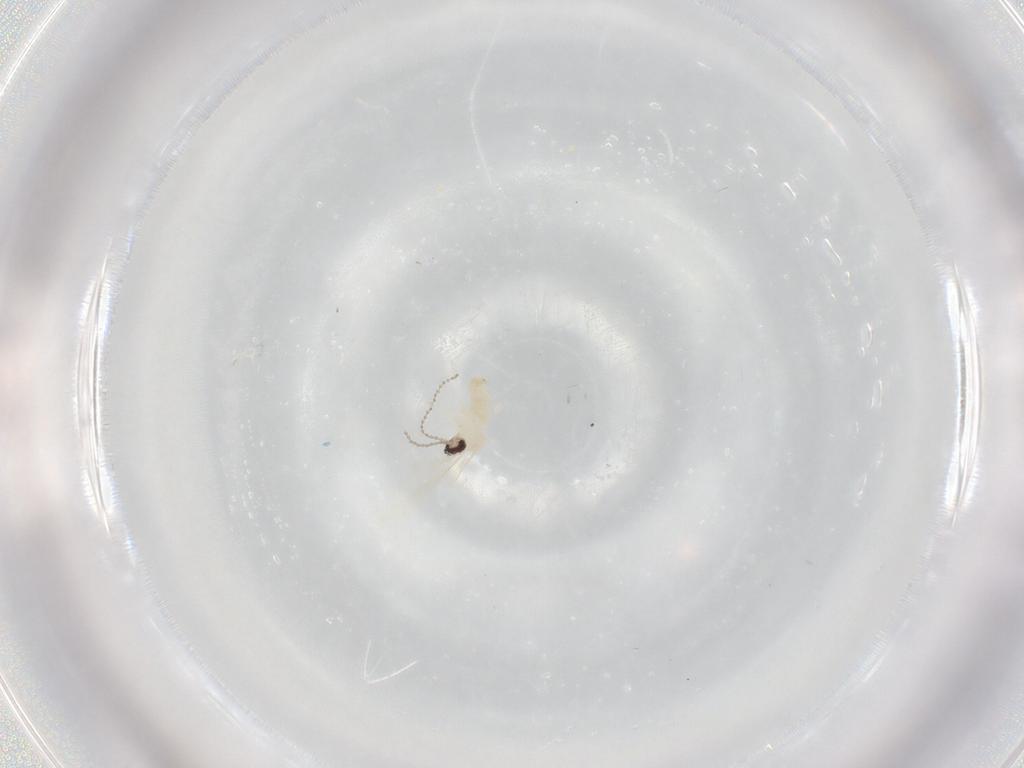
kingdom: Animalia
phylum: Arthropoda
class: Insecta
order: Diptera
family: Cecidomyiidae
